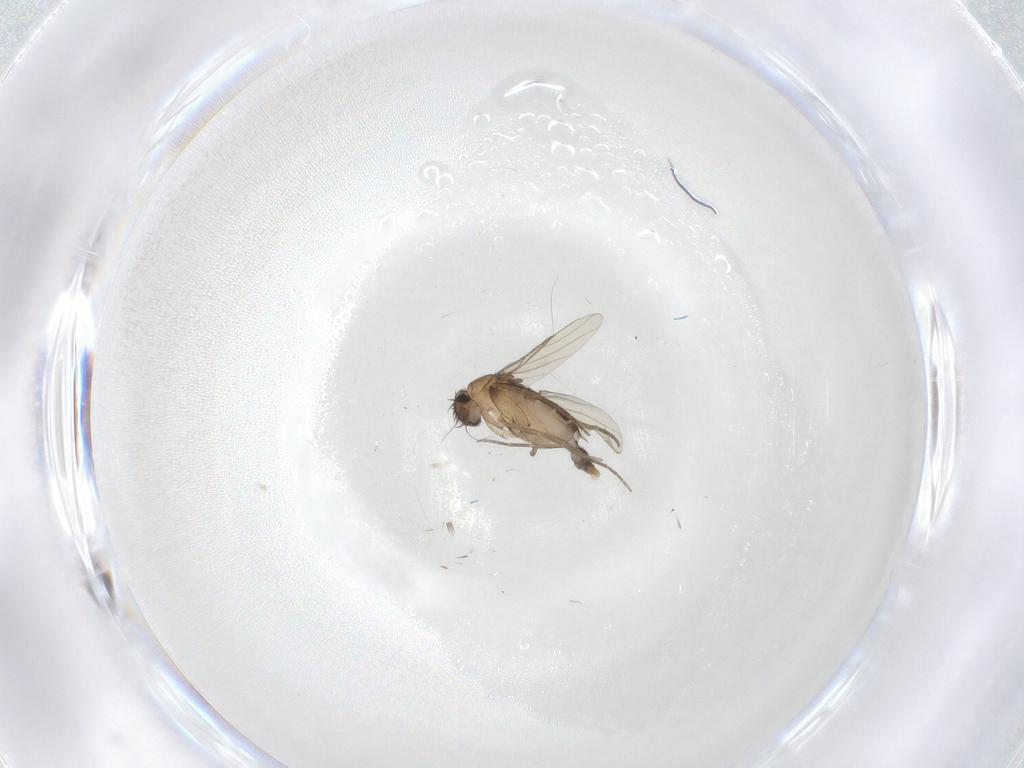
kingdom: Animalia
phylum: Arthropoda
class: Insecta
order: Diptera
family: Phoridae
